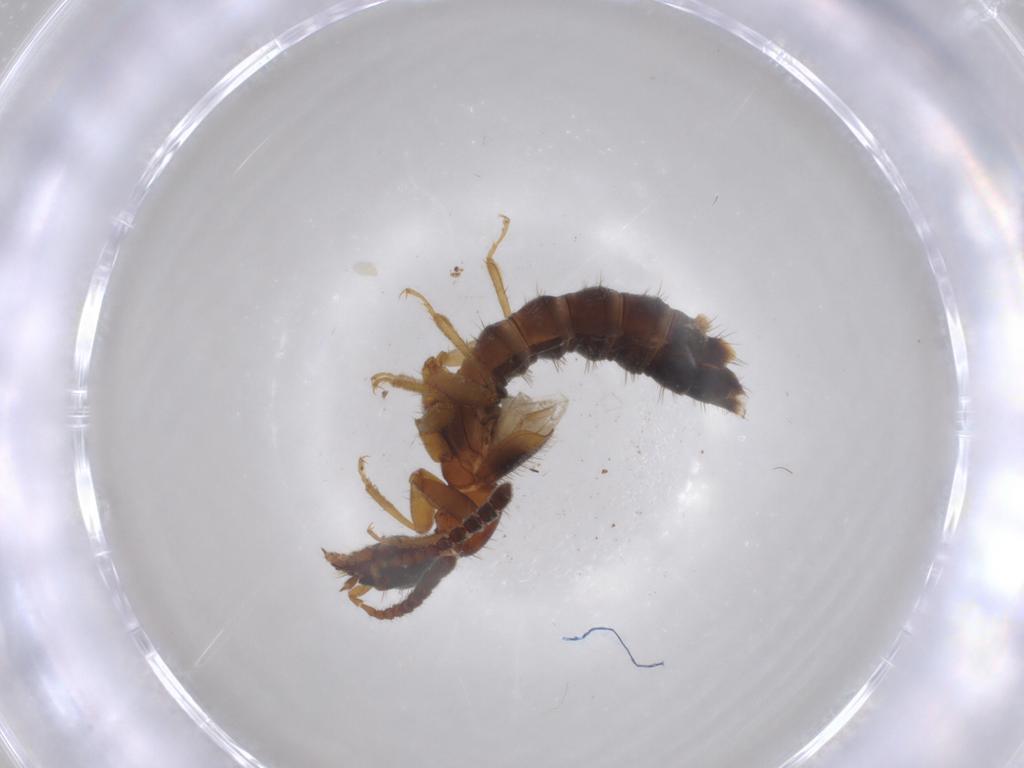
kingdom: Animalia
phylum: Arthropoda
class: Insecta
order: Coleoptera
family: Staphylinidae
